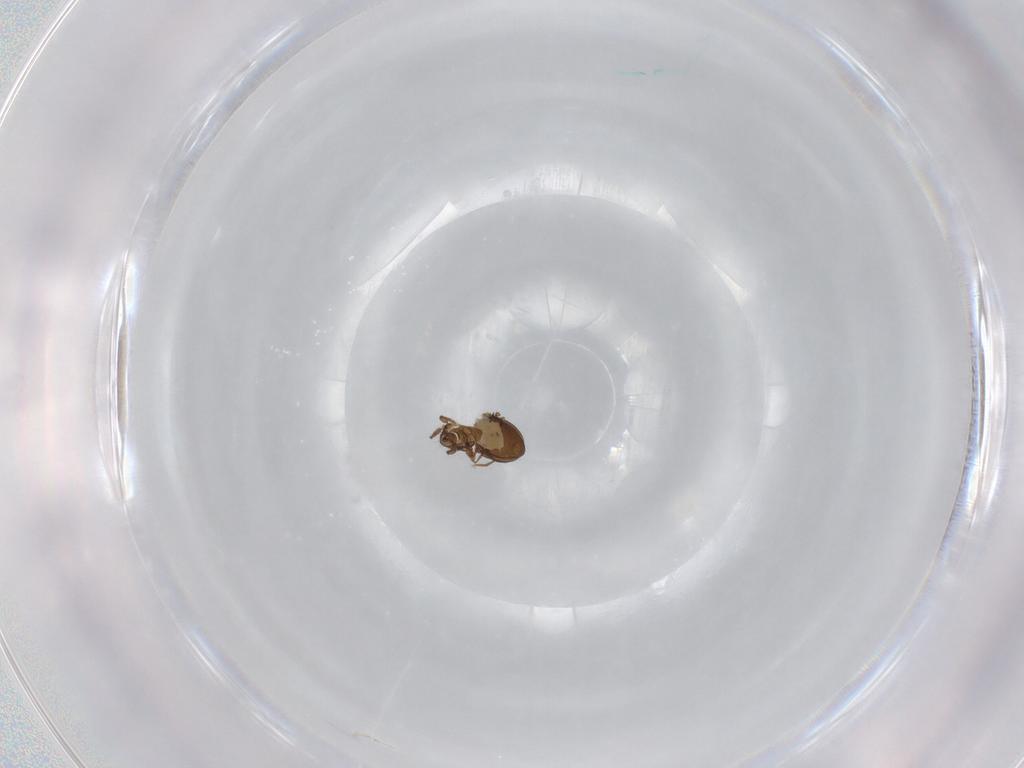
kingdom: Animalia
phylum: Arthropoda
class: Arachnida
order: Sarcoptiformes
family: Oribatulidae
